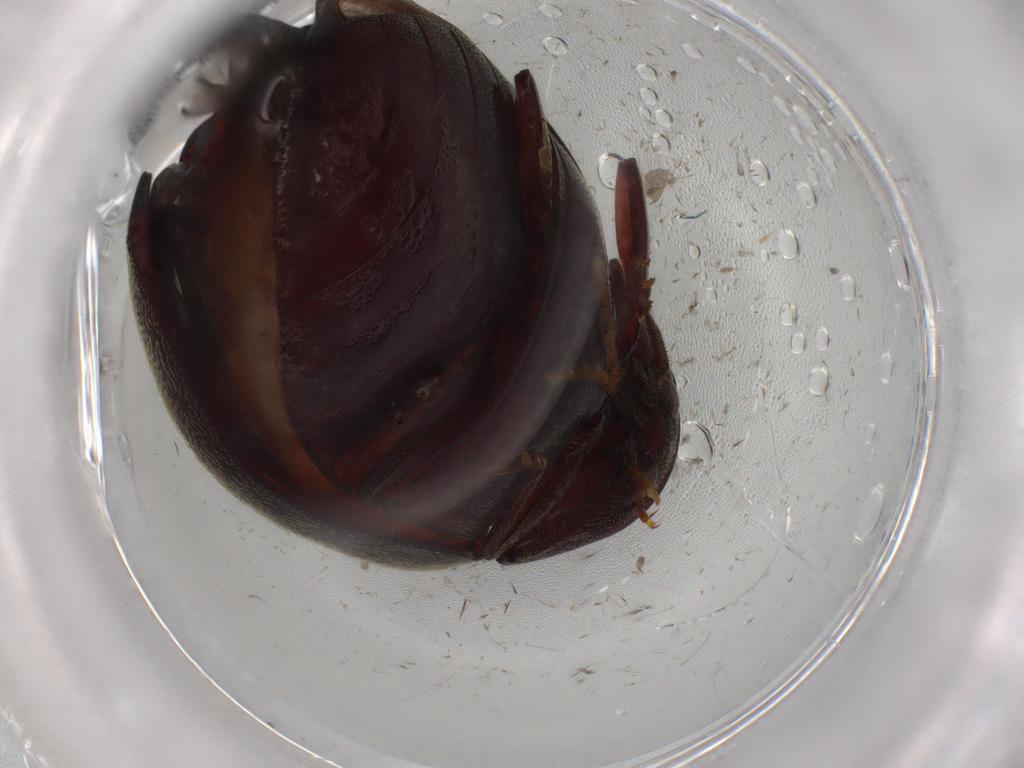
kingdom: Animalia
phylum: Arthropoda
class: Insecta
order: Coleoptera
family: Chelonariidae
